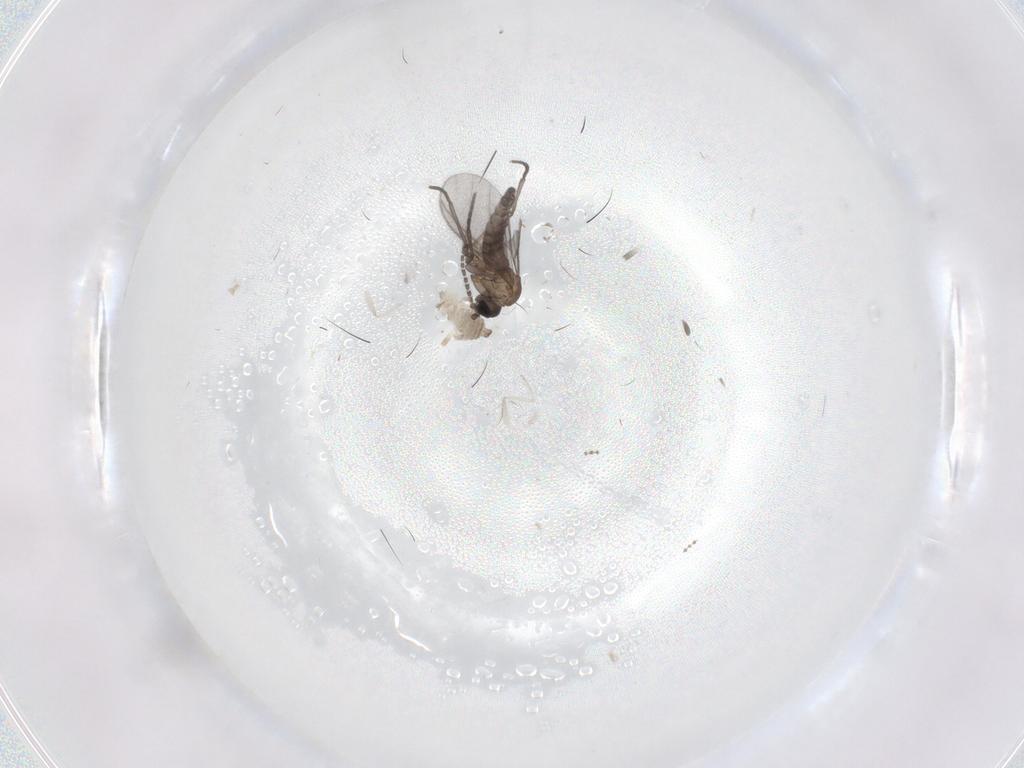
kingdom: Animalia
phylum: Arthropoda
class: Insecta
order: Diptera
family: Sciaridae
